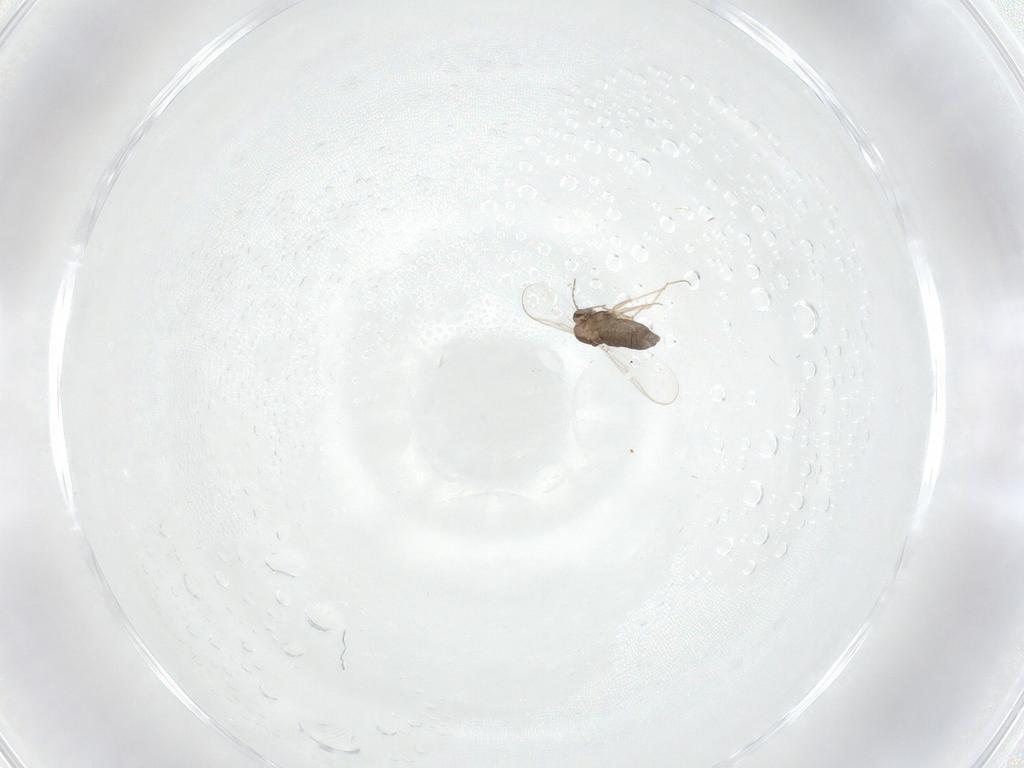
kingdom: Animalia
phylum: Arthropoda
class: Insecta
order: Diptera
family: Chironomidae
